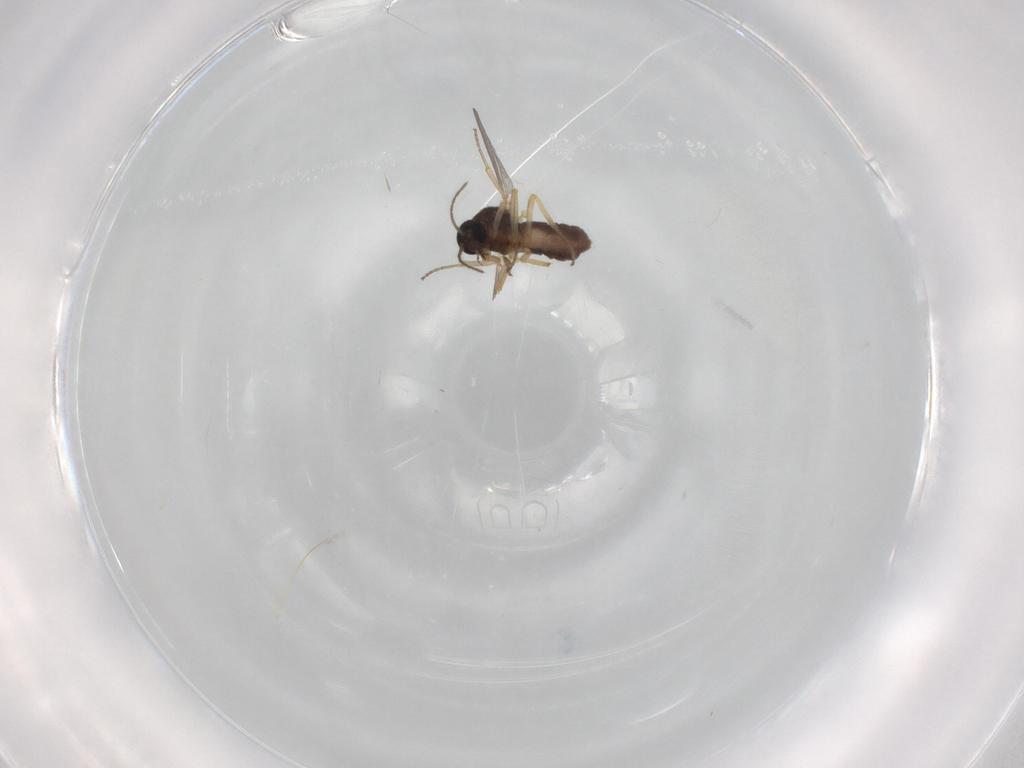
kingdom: Animalia
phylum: Arthropoda
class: Insecta
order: Diptera
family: Ceratopogonidae
